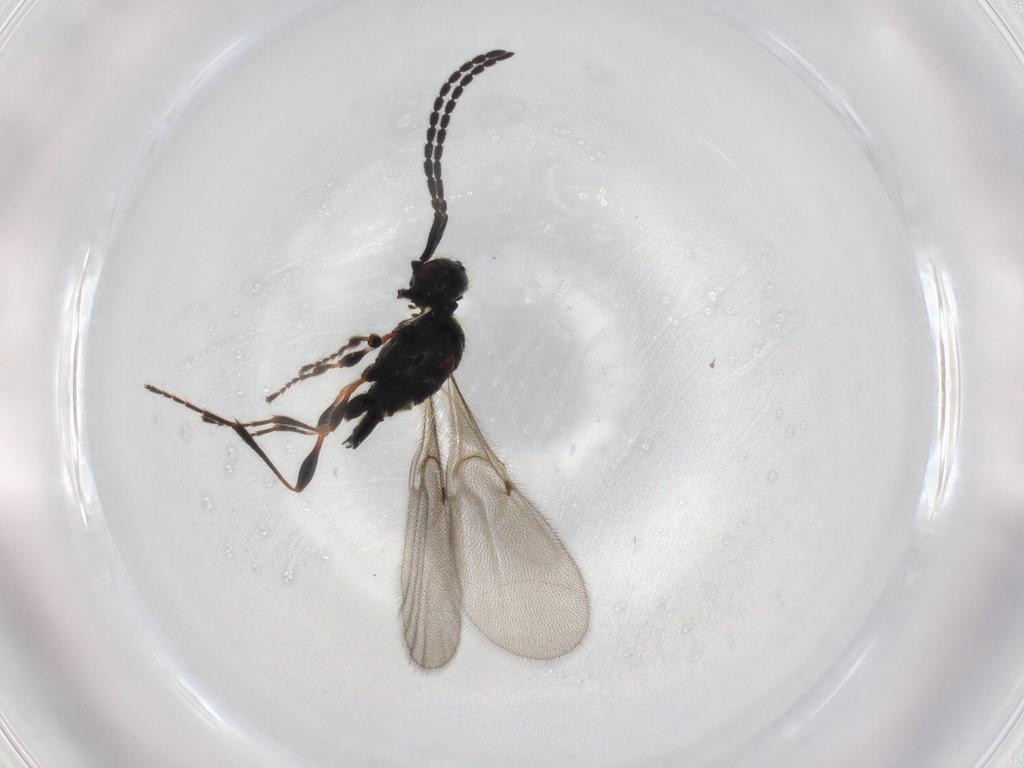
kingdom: Animalia
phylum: Arthropoda
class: Insecta
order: Hymenoptera
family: Diapriidae
